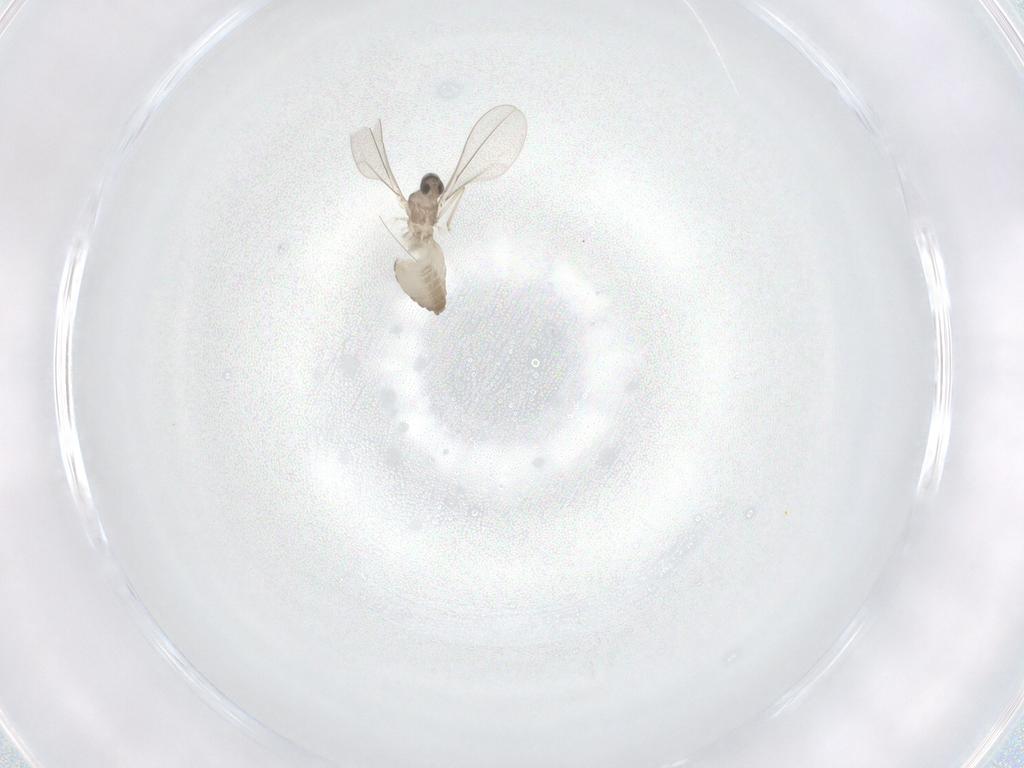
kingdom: Animalia
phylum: Arthropoda
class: Insecta
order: Diptera
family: Cecidomyiidae
